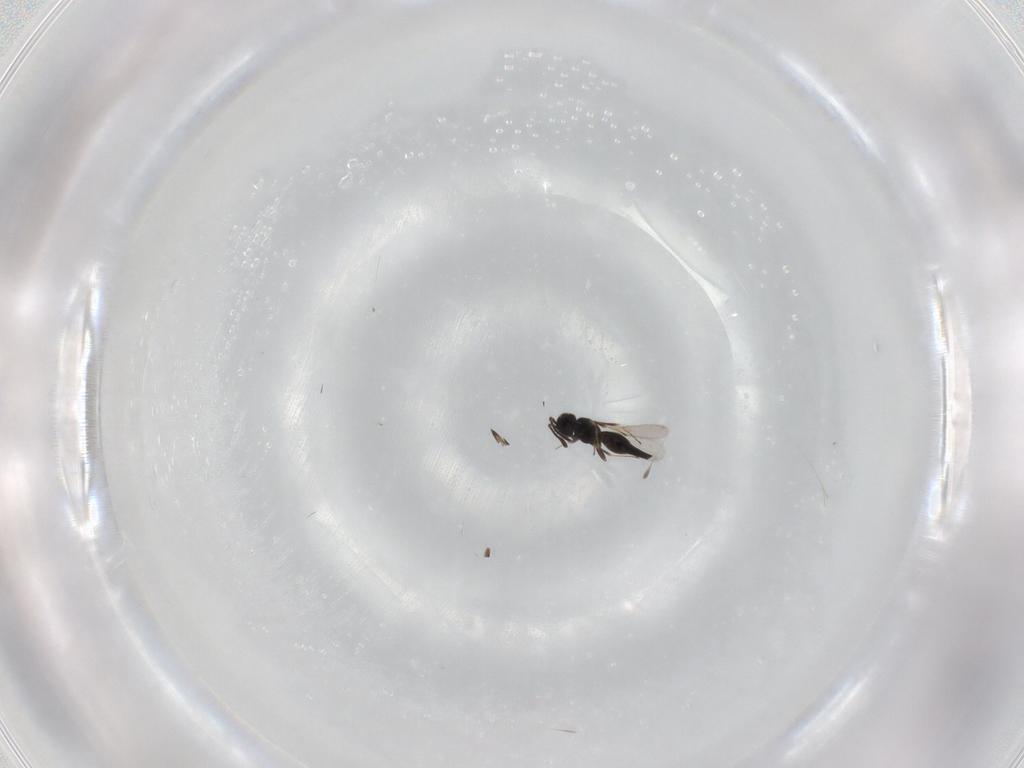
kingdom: Animalia
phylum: Arthropoda
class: Insecta
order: Hymenoptera
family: Scelionidae
